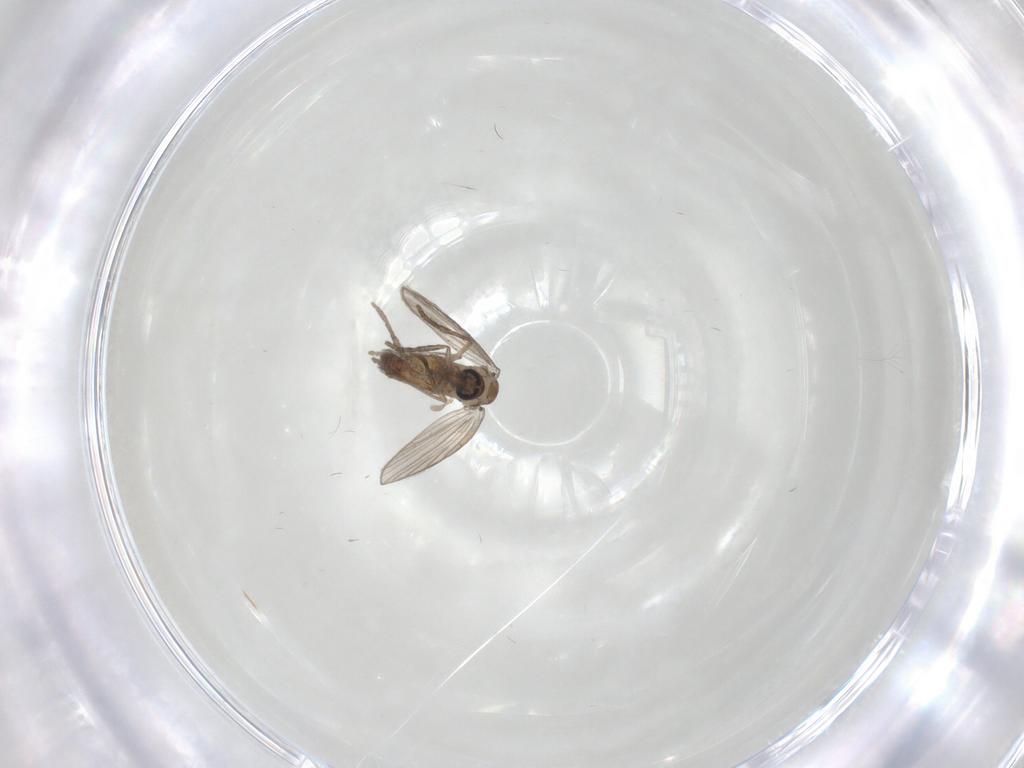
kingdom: Animalia
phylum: Arthropoda
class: Insecta
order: Diptera
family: Psychodidae
